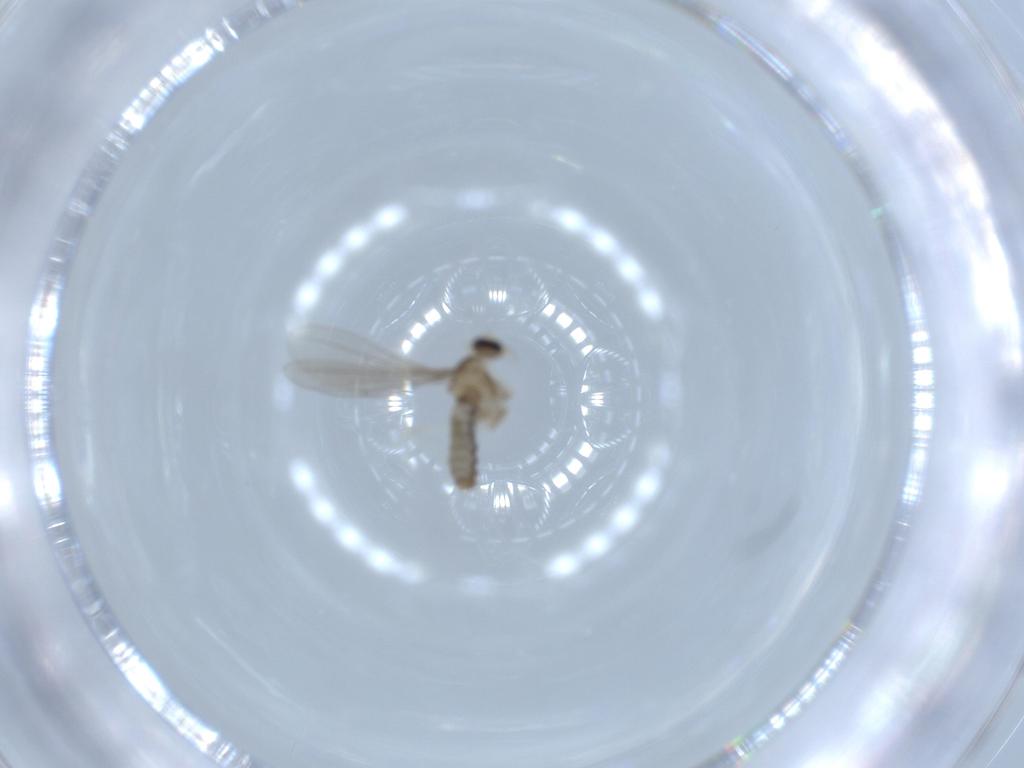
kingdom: Animalia
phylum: Arthropoda
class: Insecta
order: Diptera
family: Cecidomyiidae
